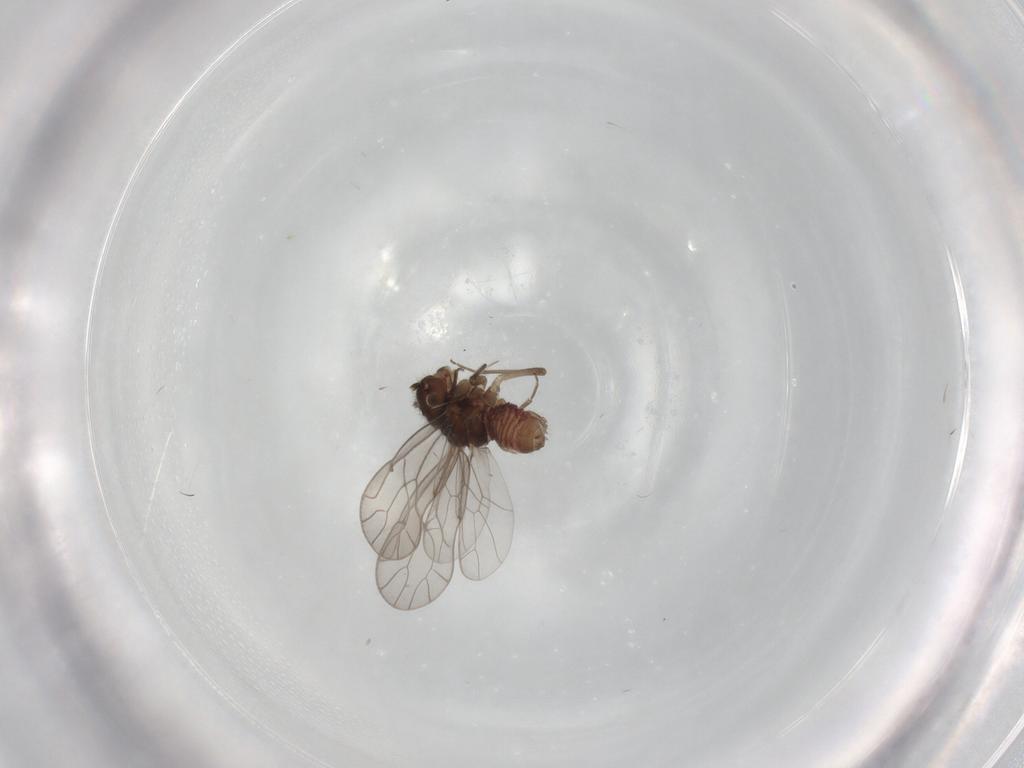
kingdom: Animalia
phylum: Arthropoda
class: Insecta
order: Psocodea
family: Ectopsocidae
